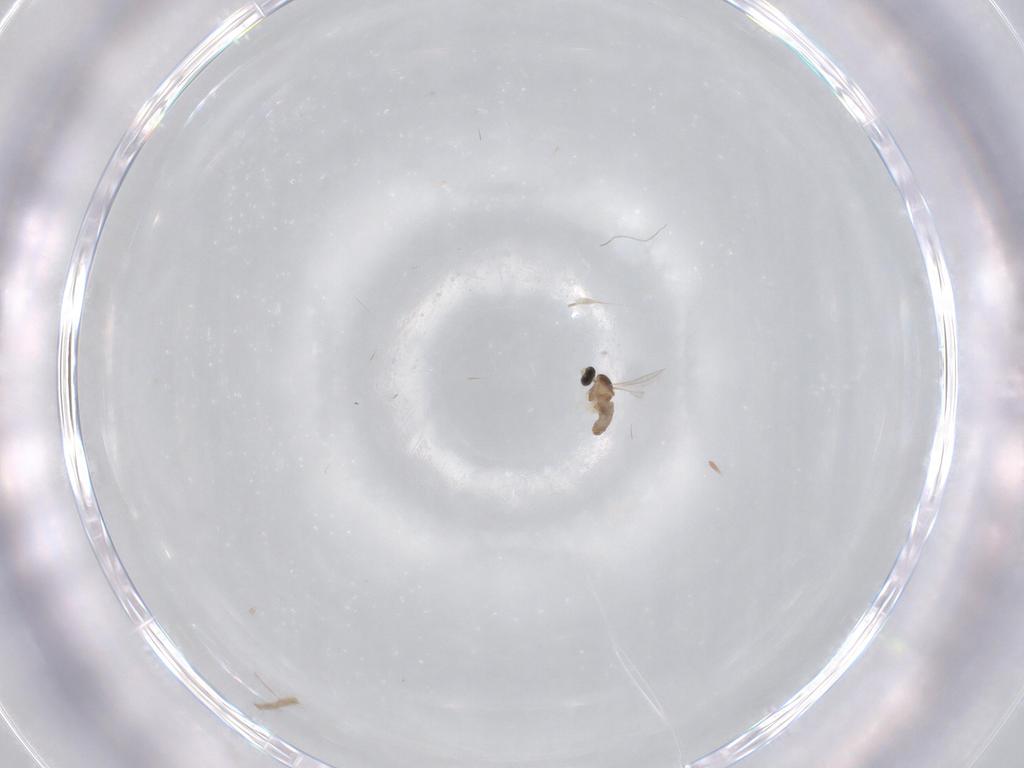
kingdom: Animalia
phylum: Arthropoda
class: Insecta
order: Diptera
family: Cecidomyiidae
